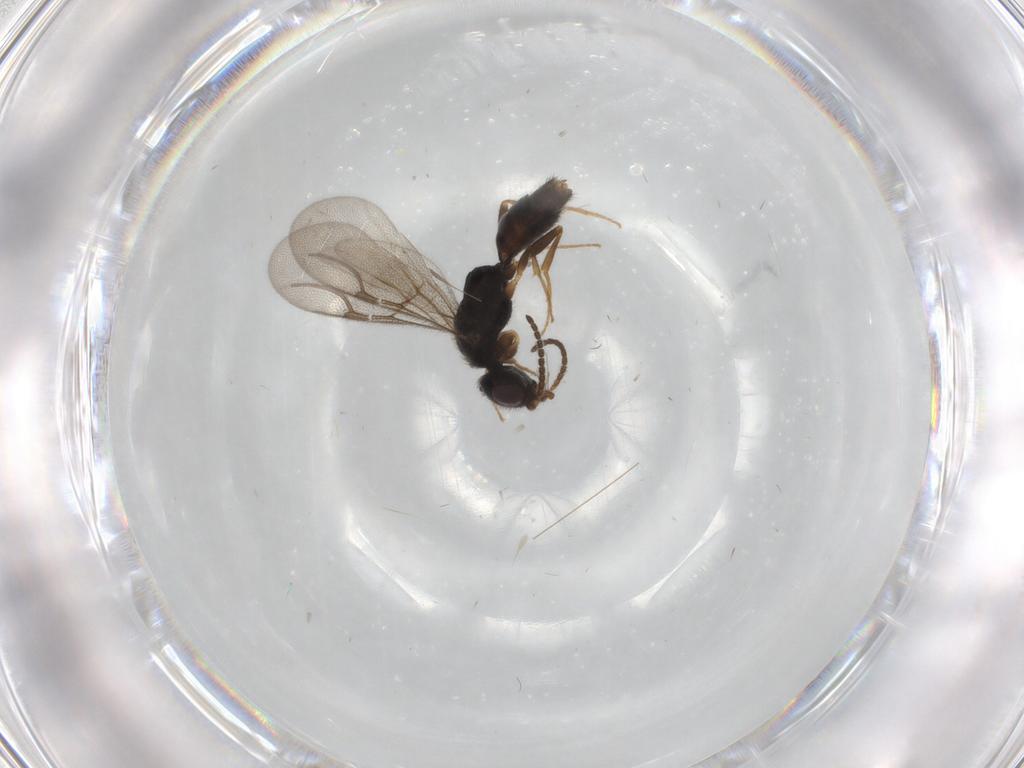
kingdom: Animalia
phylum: Arthropoda
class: Insecta
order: Hymenoptera
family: Bethylidae
